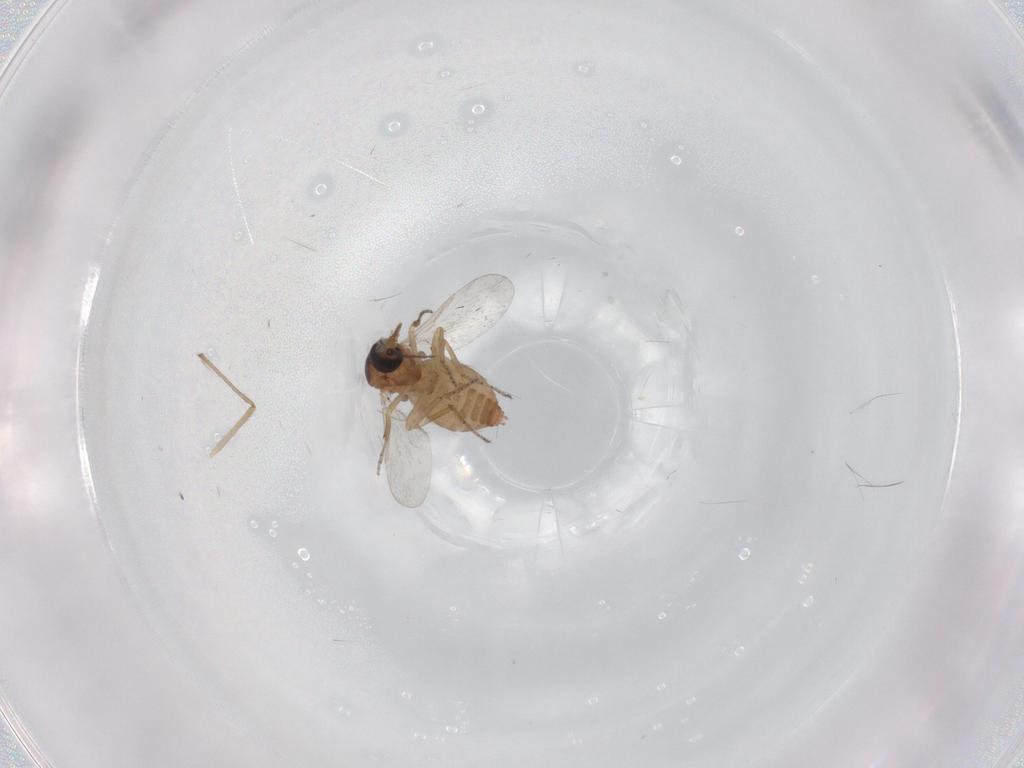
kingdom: Animalia
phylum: Arthropoda
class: Insecta
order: Diptera
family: Ceratopogonidae
